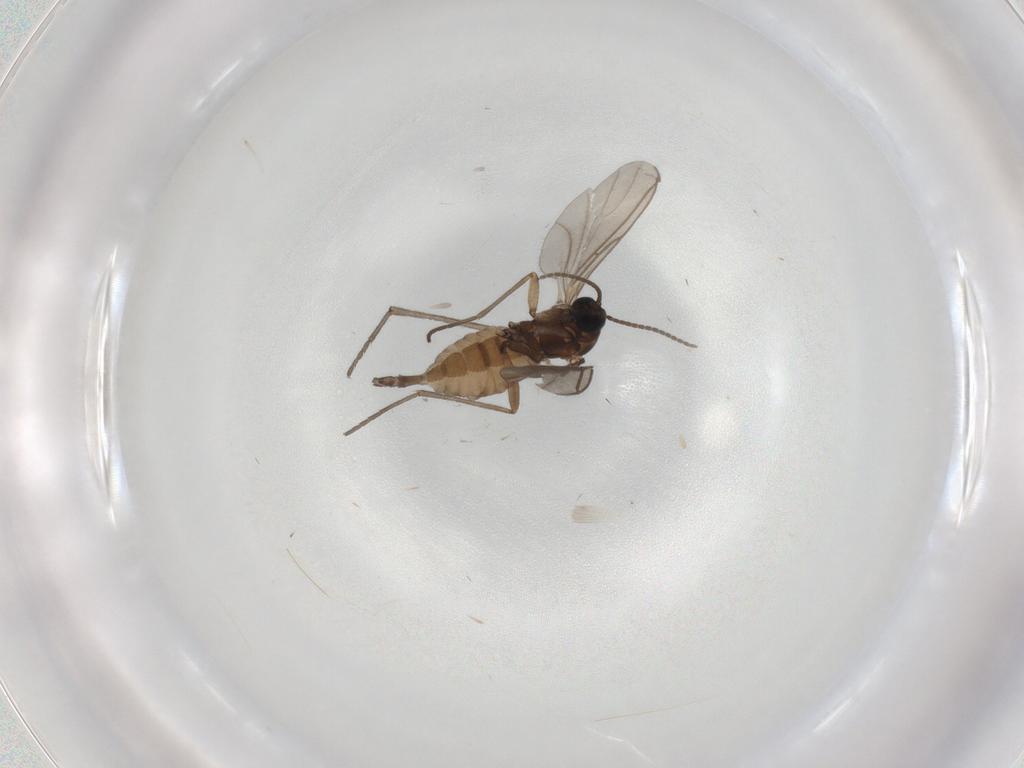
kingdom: Animalia
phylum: Arthropoda
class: Insecta
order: Diptera
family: Sciaridae
